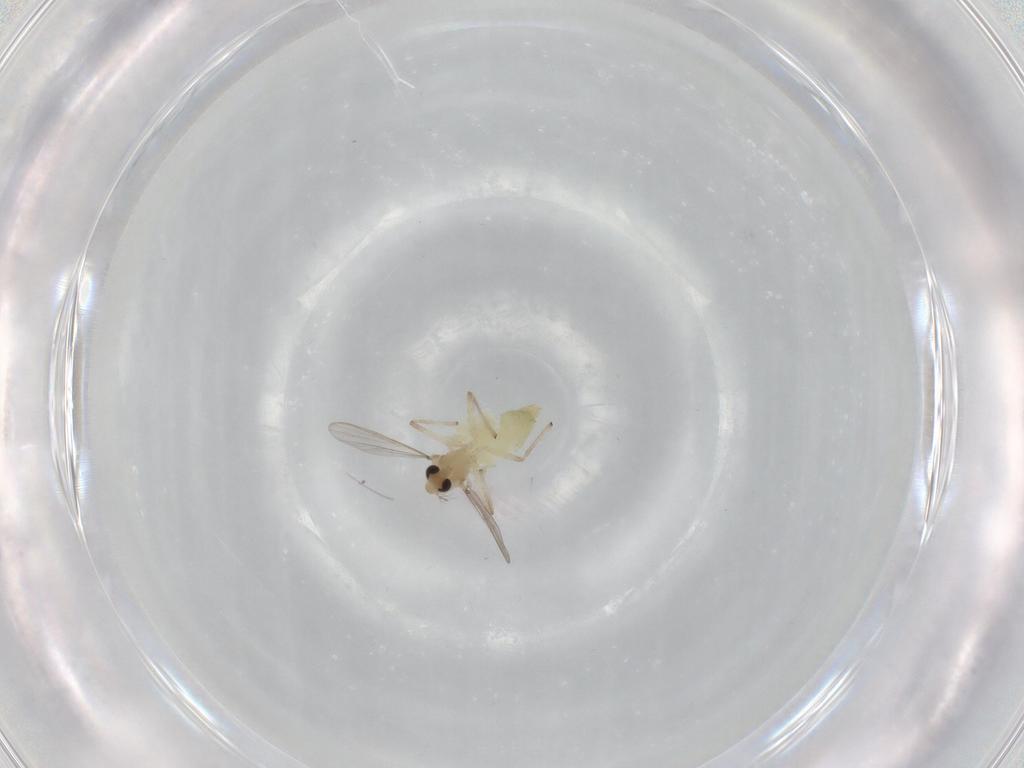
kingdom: Animalia
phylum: Arthropoda
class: Insecta
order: Diptera
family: Chironomidae
